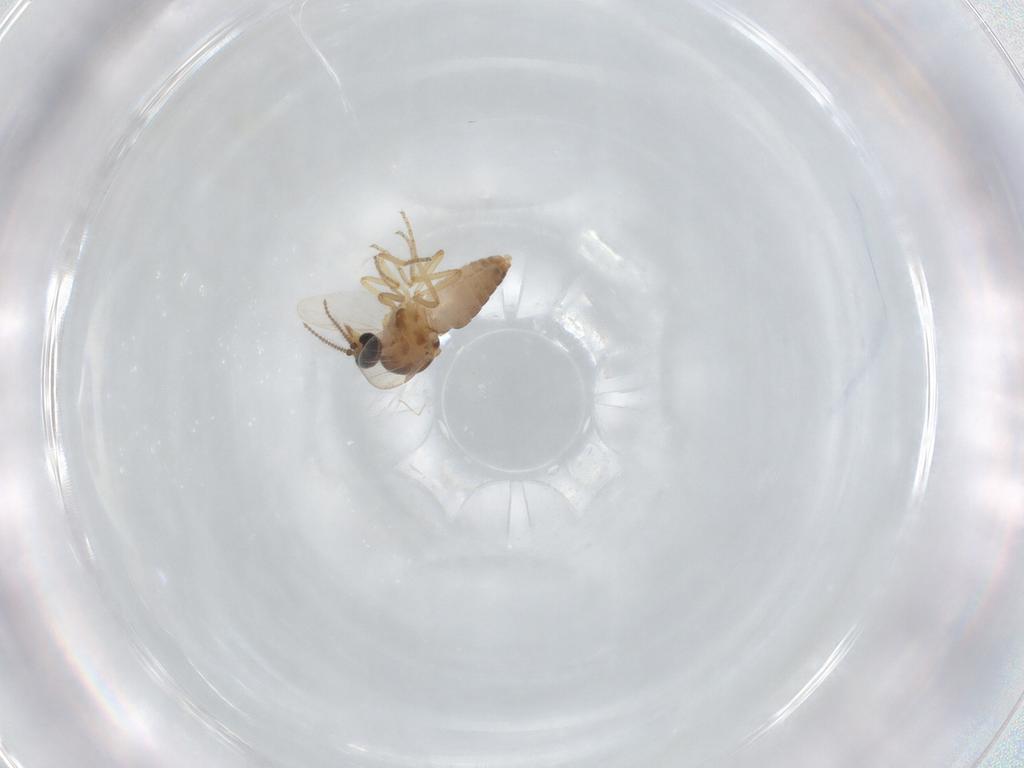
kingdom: Animalia
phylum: Arthropoda
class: Insecta
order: Diptera
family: Ceratopogonidae
